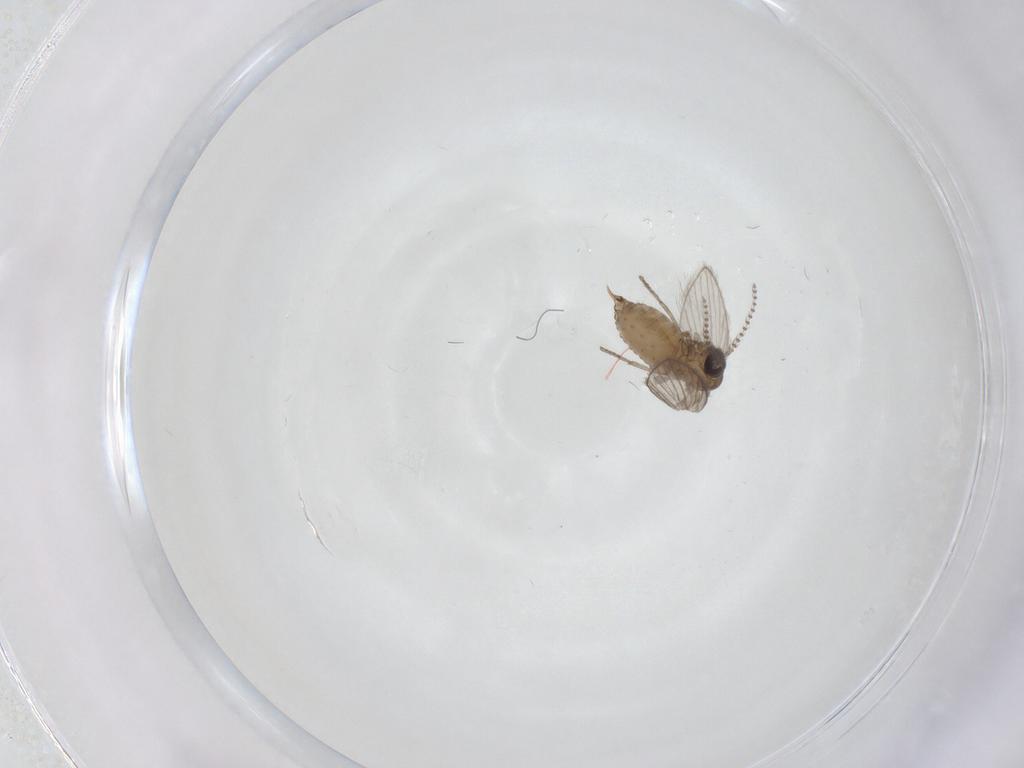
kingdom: Animalia
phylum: Arthropoda
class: Insecta
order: Diptera
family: Psychodidae
